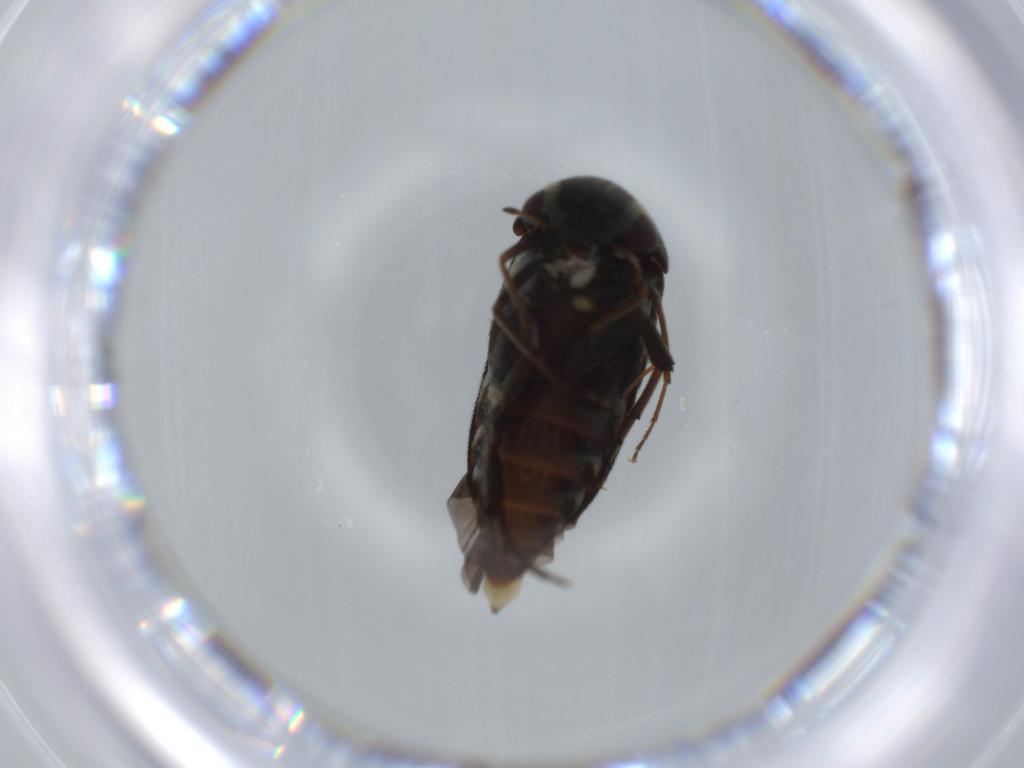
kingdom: Animalia
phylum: Arthropoda
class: Insecta
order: Coleoptera
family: Mordellidae
